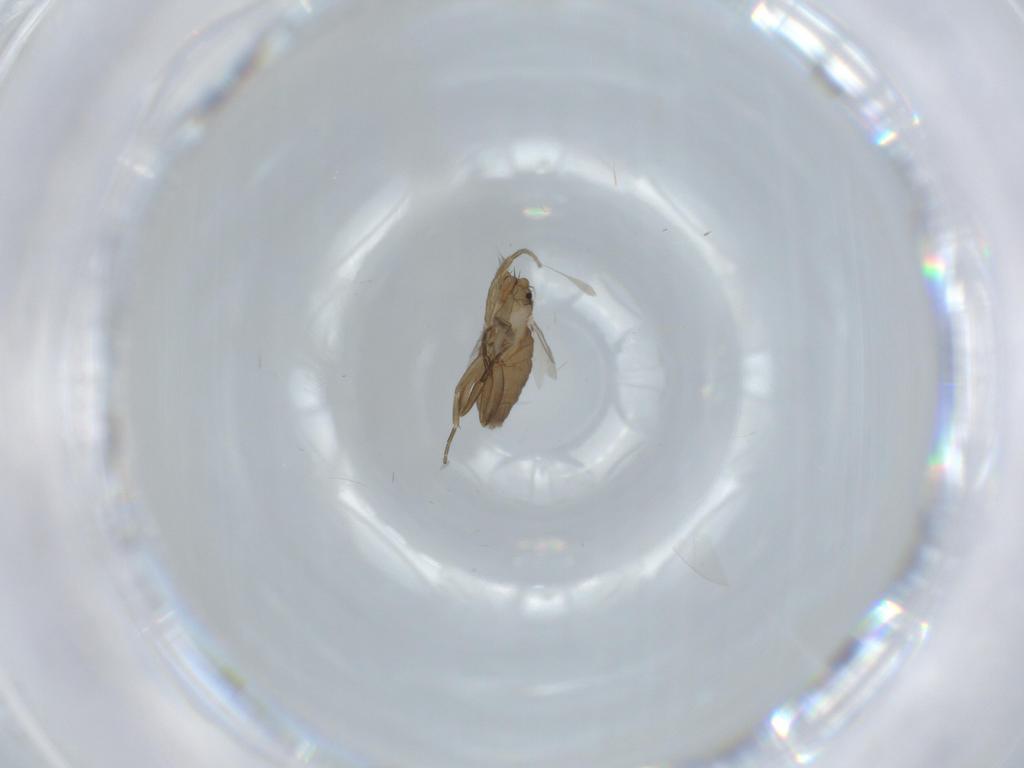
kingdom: Animalia
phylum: Arthropoda
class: Insecta
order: Diptera
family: Phoridae
